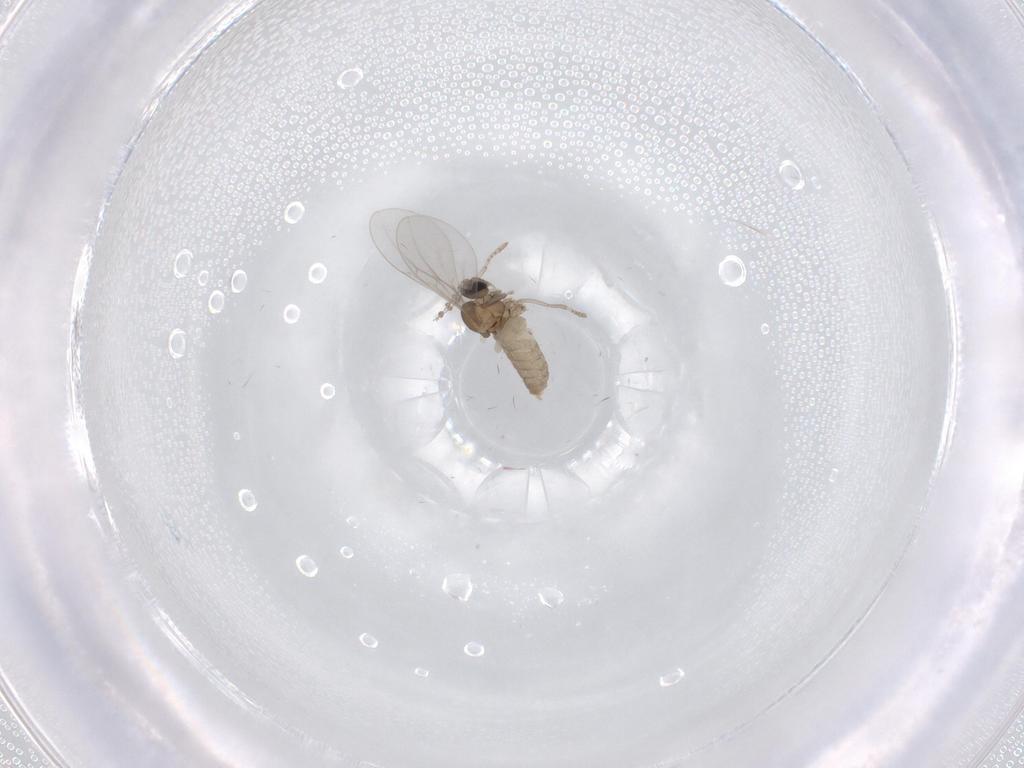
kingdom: Animalia
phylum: Arthropoda
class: Insecta
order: Diptera
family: Cecidomyiidae
